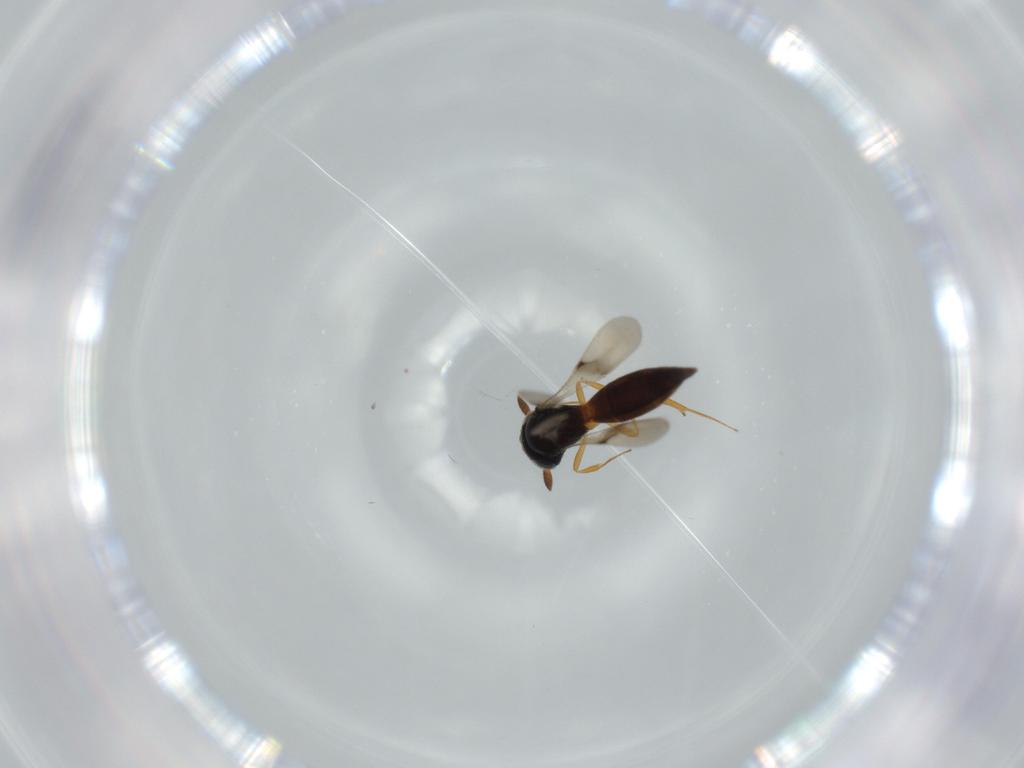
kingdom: Animalia
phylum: Arthropoda
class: Insecta
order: Hymenoptera
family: Scelionidae
